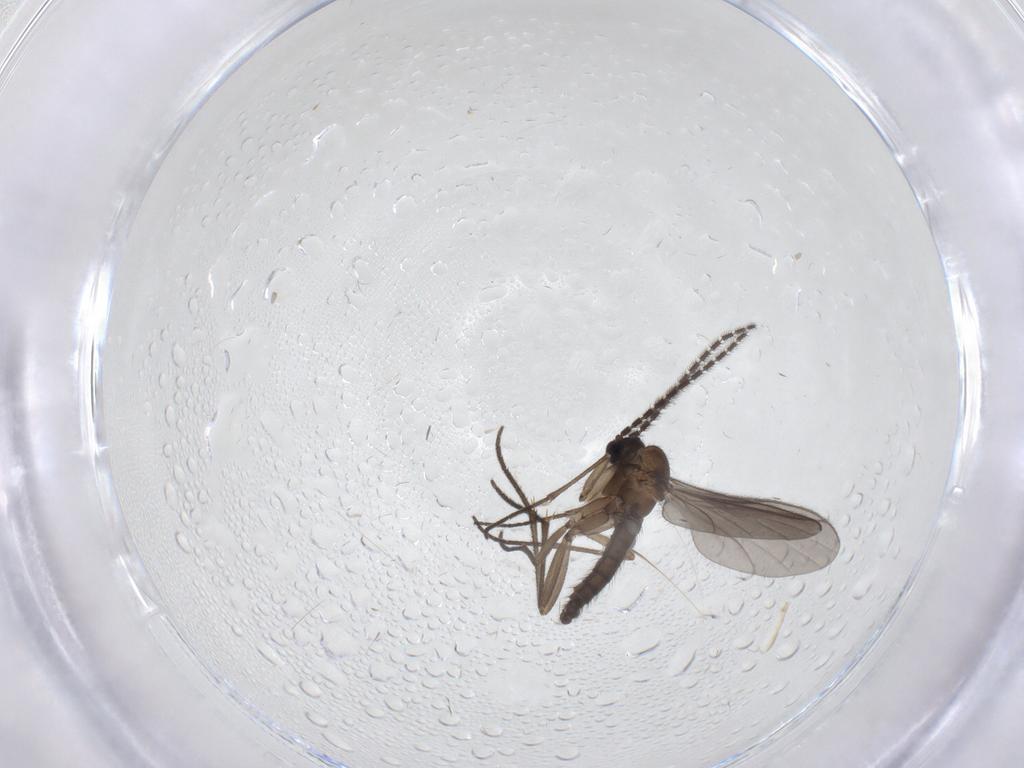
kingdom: Animalia
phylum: Arthropoda
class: Insecta
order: Diptera
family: Sciaridae
